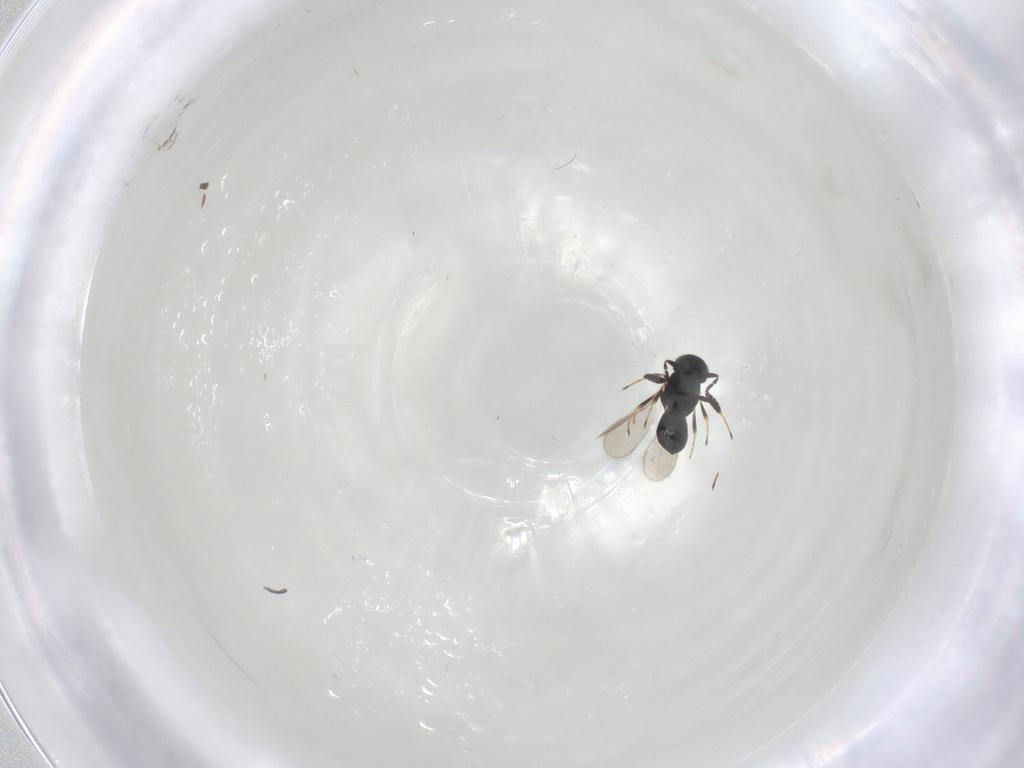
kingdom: Animalia
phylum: Arthropoda
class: Insecta
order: Hymenoptera
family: Scelionidae
